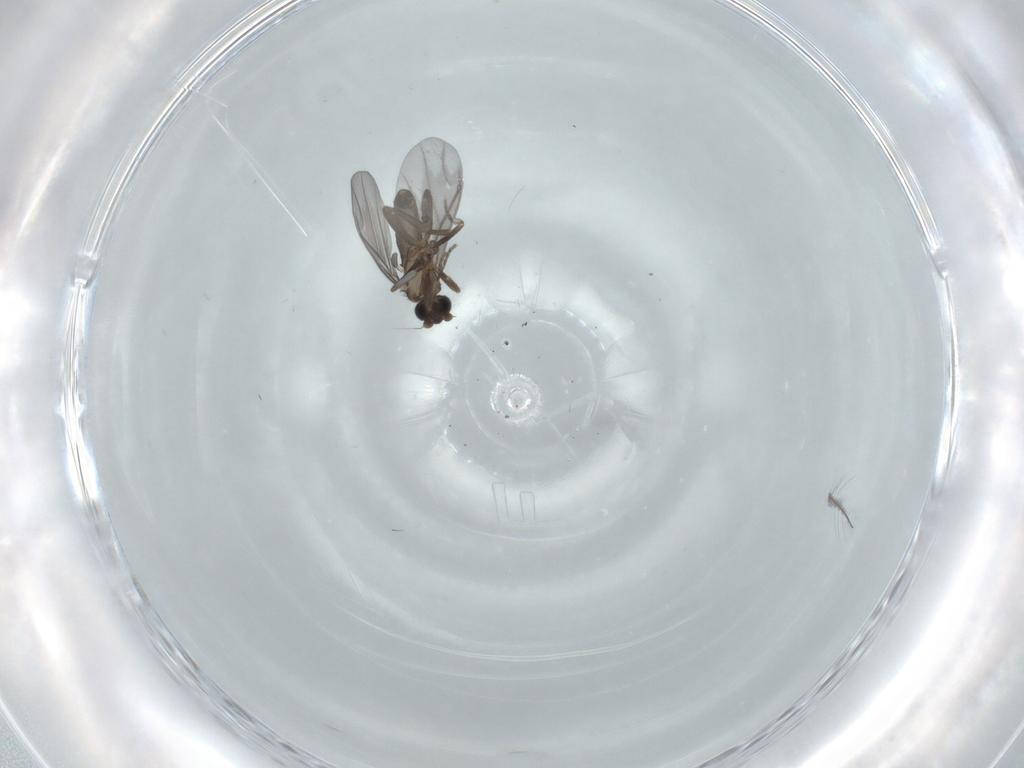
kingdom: Animalia
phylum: Arthropoda
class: Insecta
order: Diptera
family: Chironomidae
